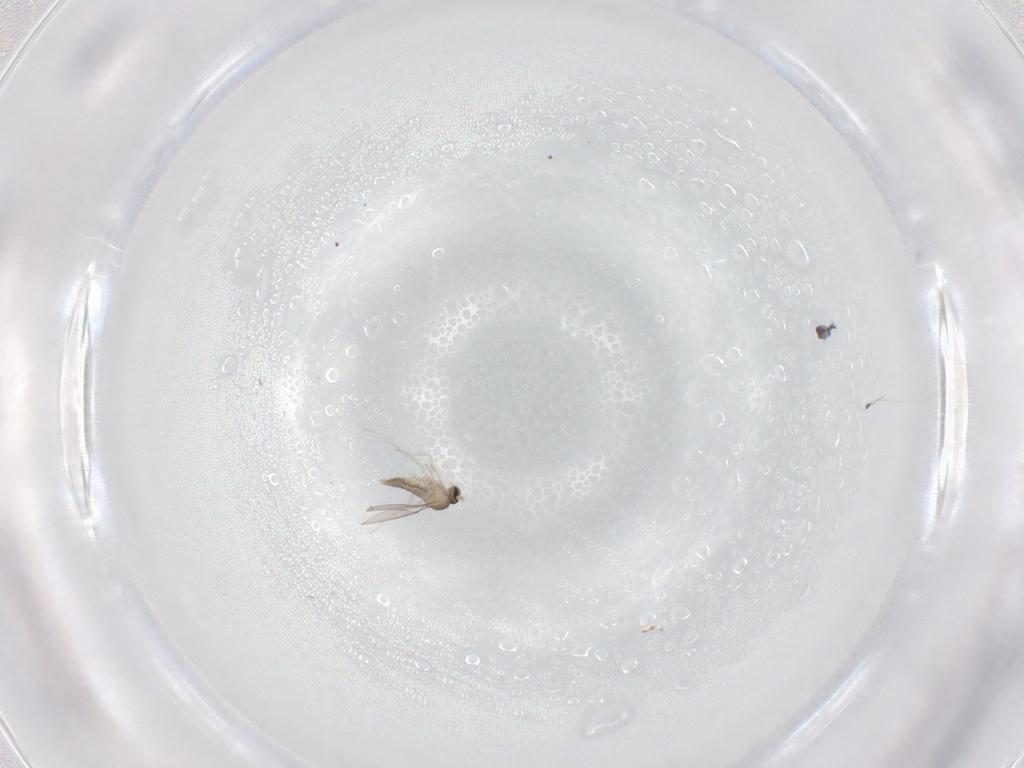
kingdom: Animalia
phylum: Arthropoda
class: Insecta
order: Diptera
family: Cecidomyiidae
